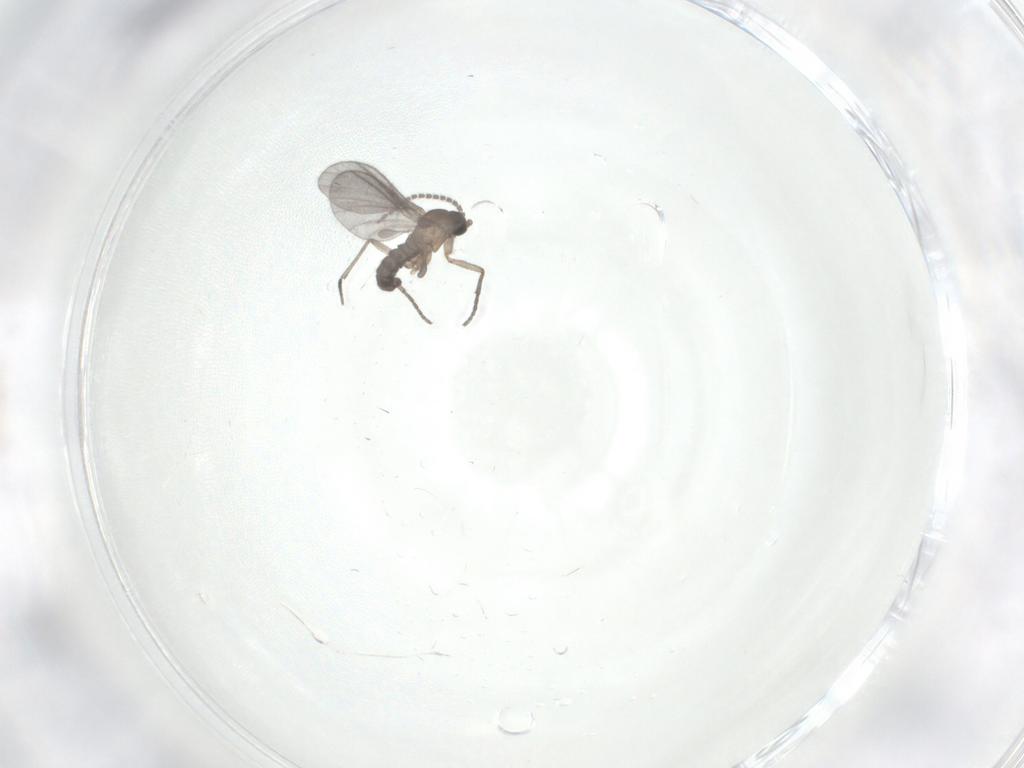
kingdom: Animalia
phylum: Arthropoda
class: Insecta
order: Diptera
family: Sciaridae
